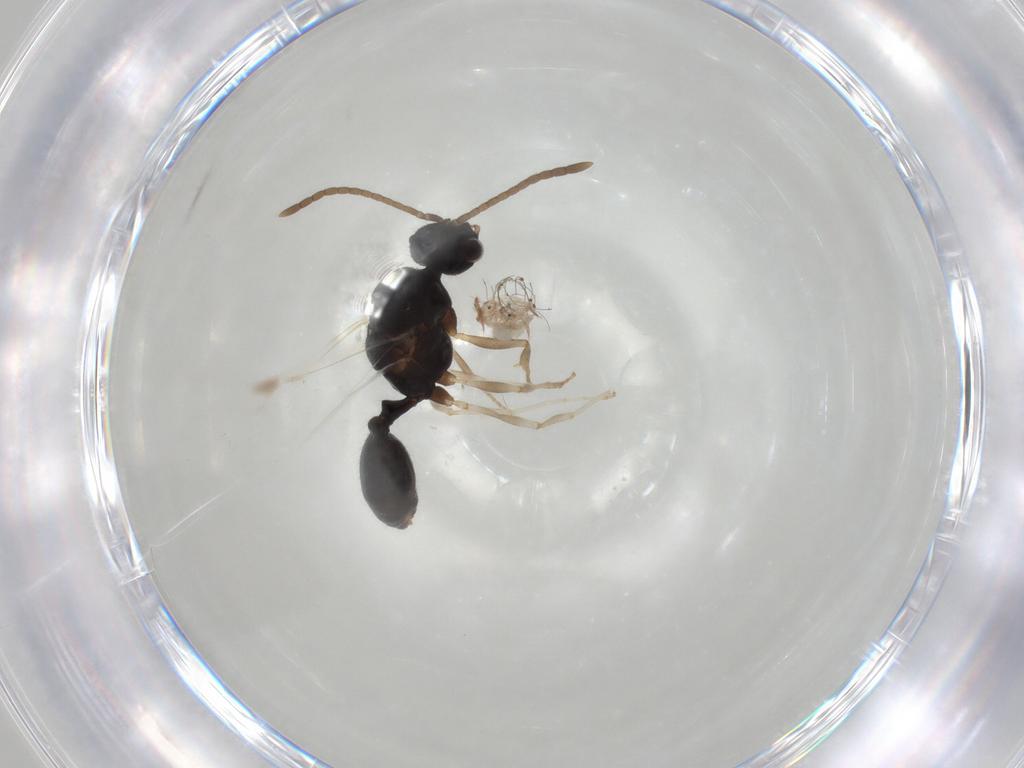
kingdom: Animalia
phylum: Arthropoda
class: Insecta
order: Hymenoptera
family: Formicidae
